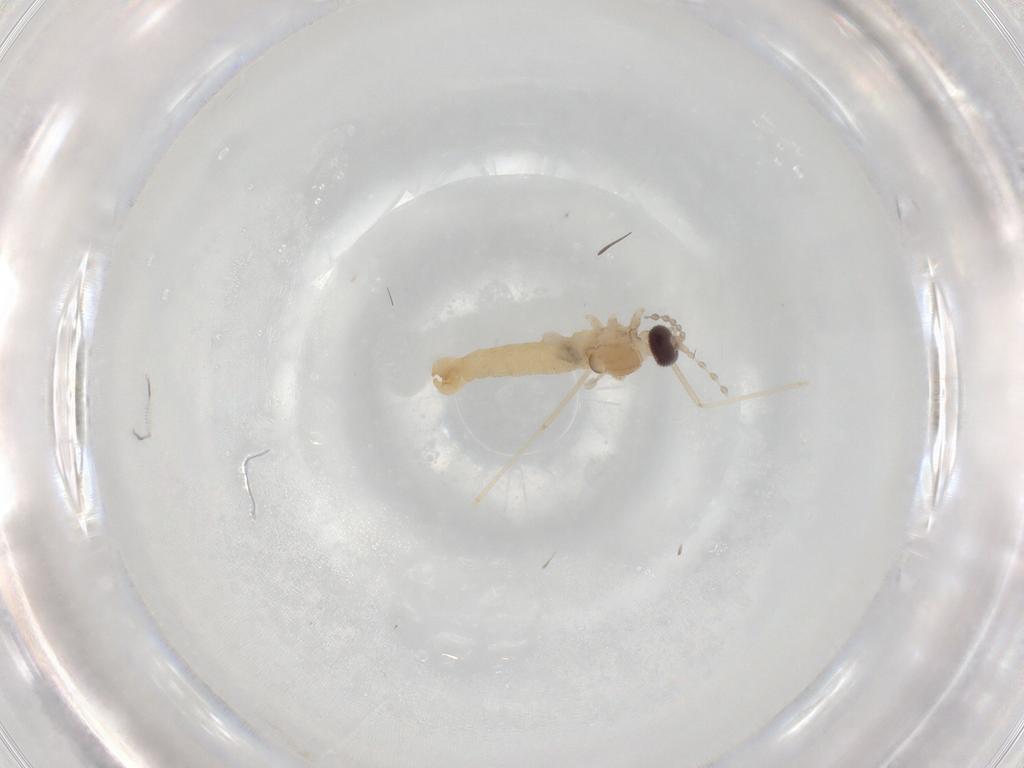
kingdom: Animalia
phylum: Arthropoda
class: Insecta
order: Diptera
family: Cecidomyiidae
